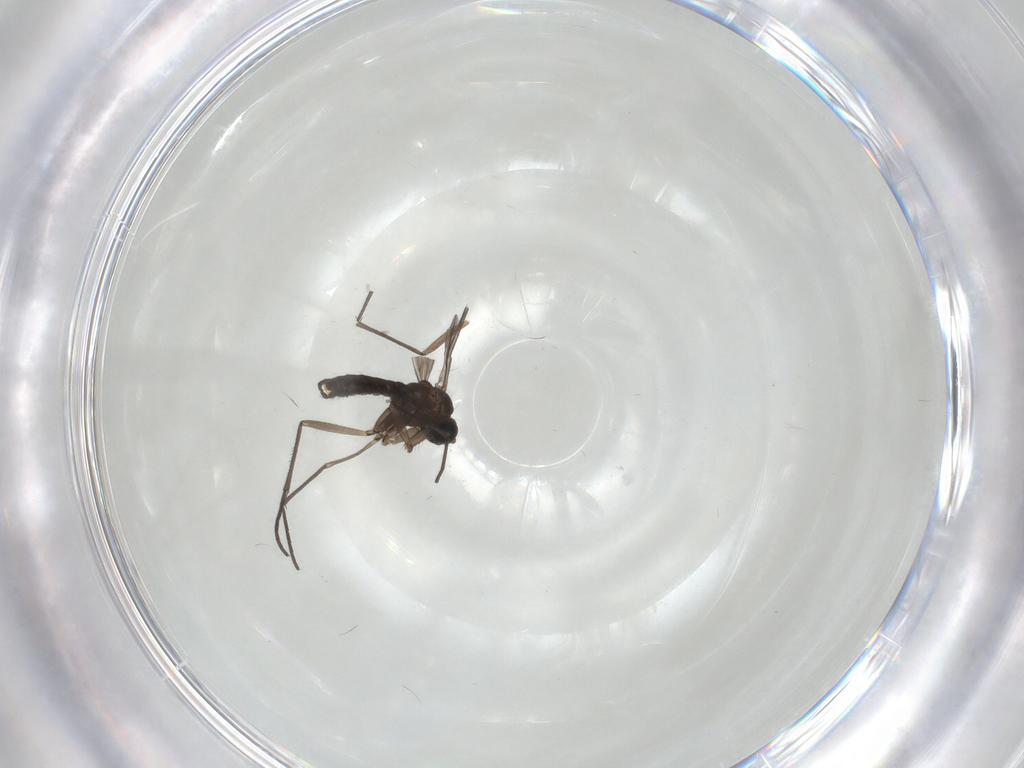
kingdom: Animalia
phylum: Arthropoda
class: Insecta
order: Diptera
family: Sciaridae
